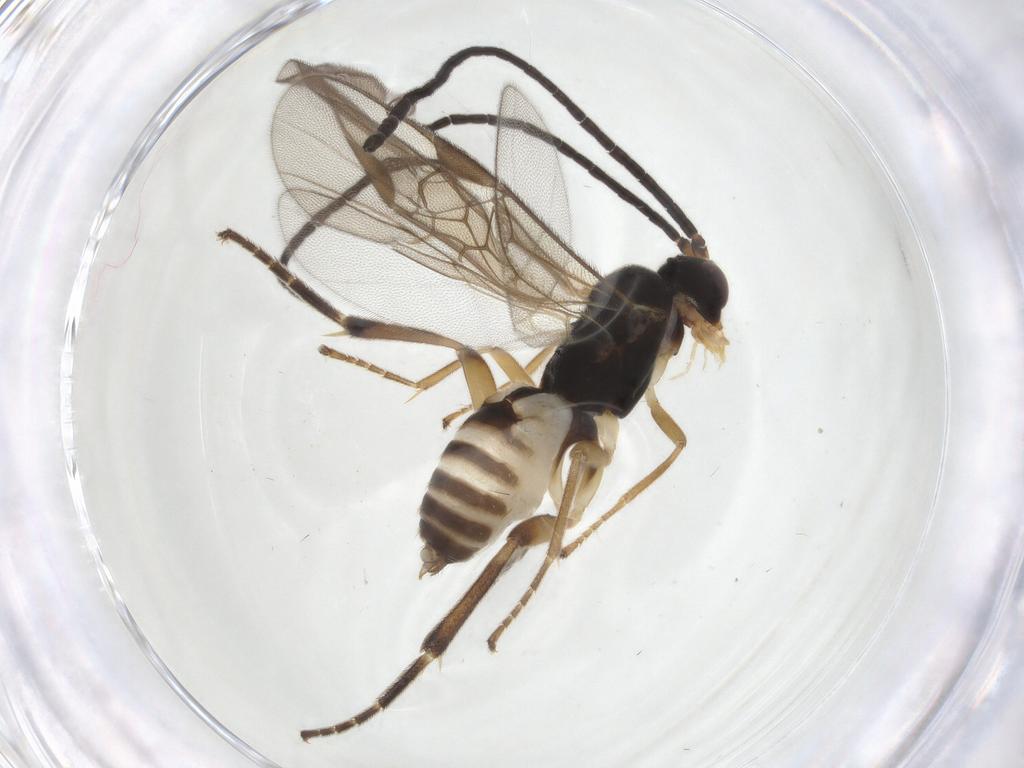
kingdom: Animalia
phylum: Arthropoda
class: Insecta
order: Hymenoptera
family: Braconidae
